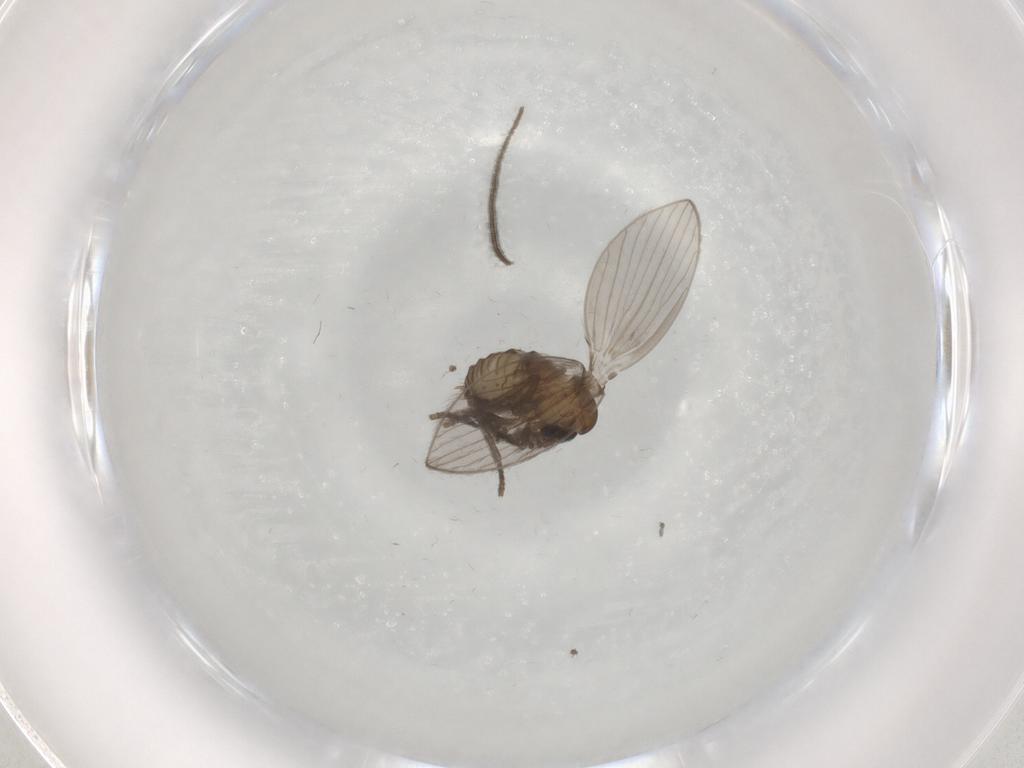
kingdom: Animalia
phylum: Arthropoda
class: Insecta
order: Diptera
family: Psychodidae
